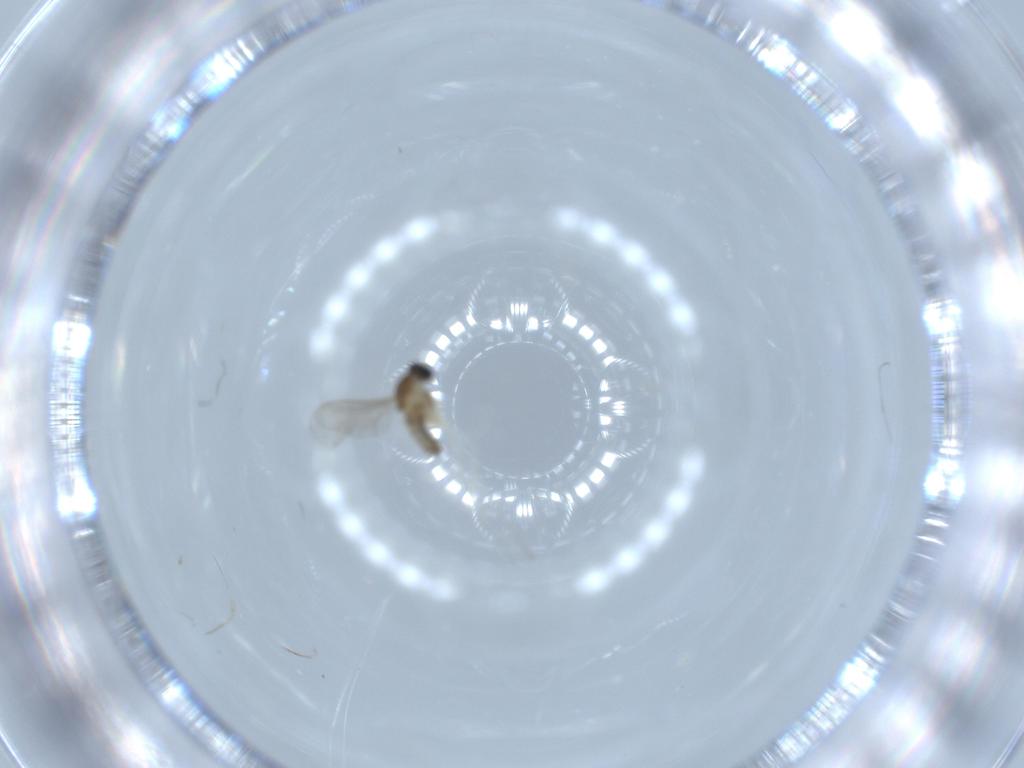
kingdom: Animalia
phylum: Arthropoda
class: Insecta
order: Diptera
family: Cecidomyiidae
